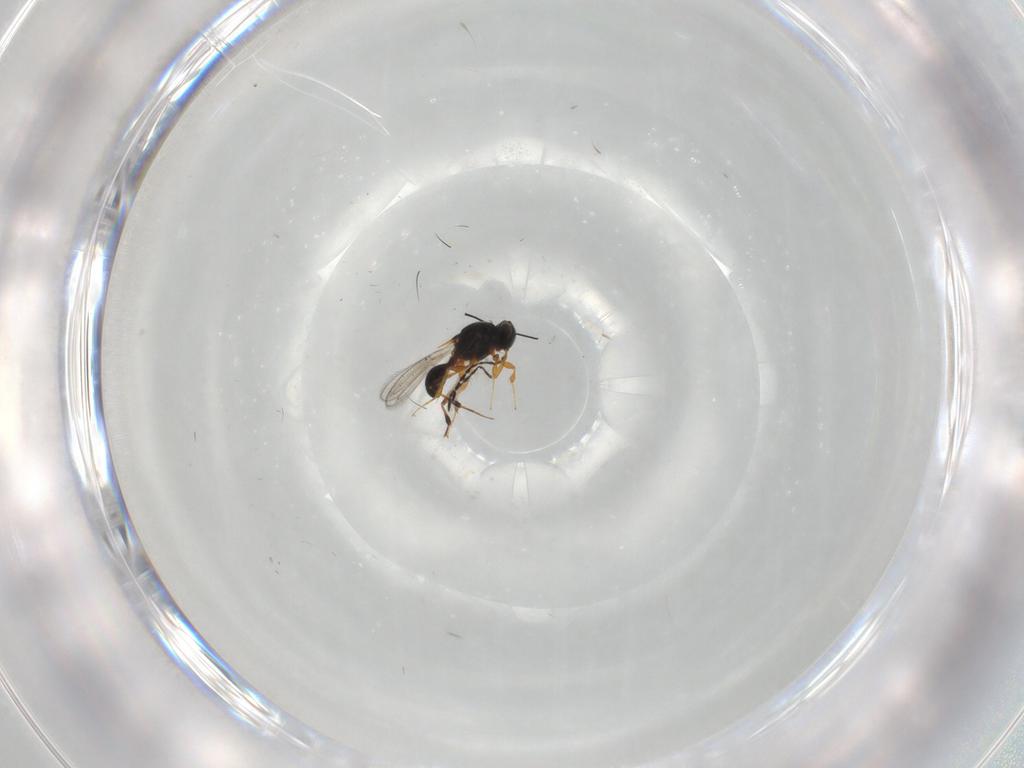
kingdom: Animalia
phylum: Arthropoda
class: Insecta
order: Hymenoptera
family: Platygastridae
